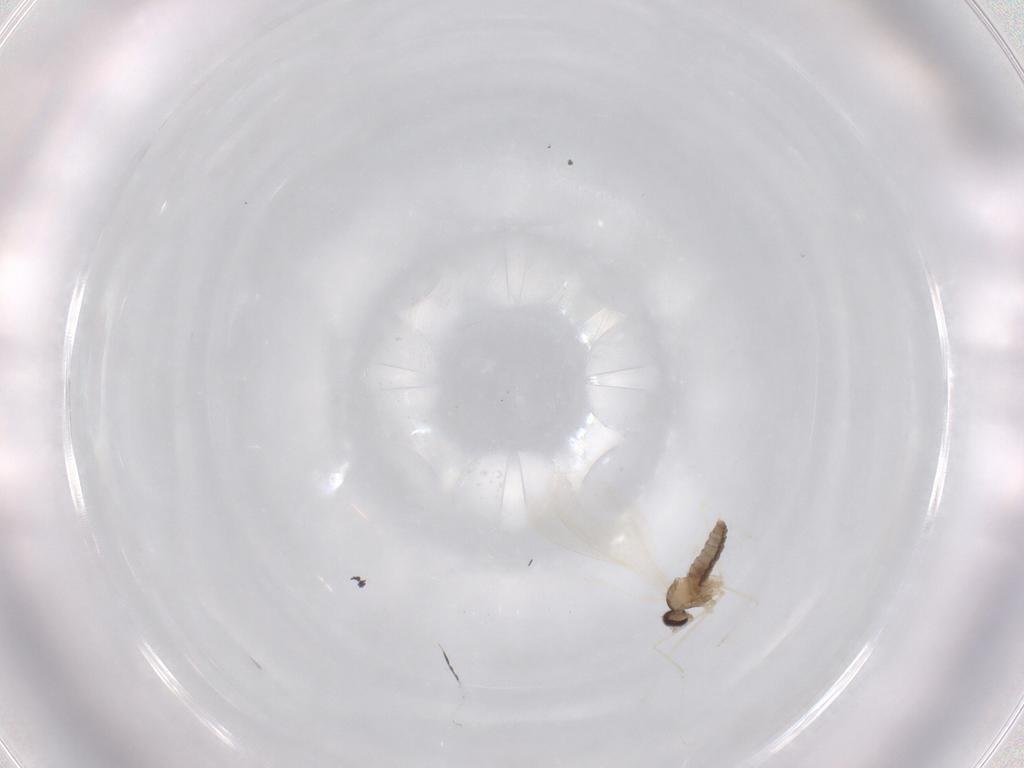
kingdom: Animalia
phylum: Arthropoda
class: Insecta
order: Diptera
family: Cecidomyiidae
